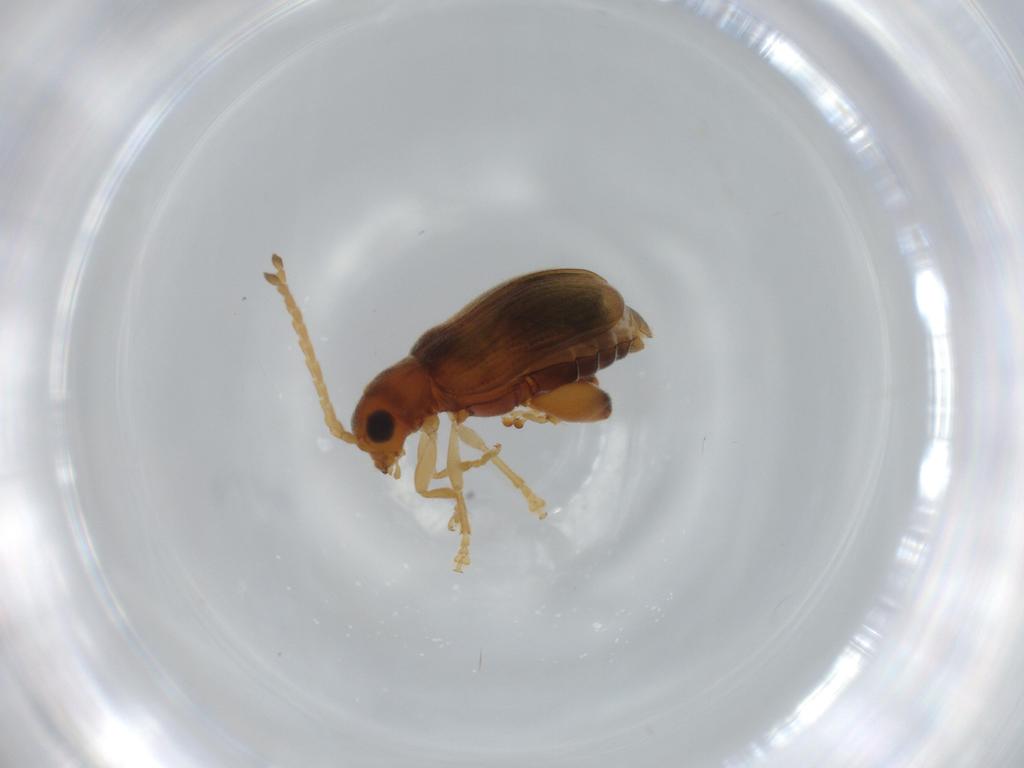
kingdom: Animalia
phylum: Arthropoda
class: Insecta
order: Coleoptera
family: Chrysomelidae
